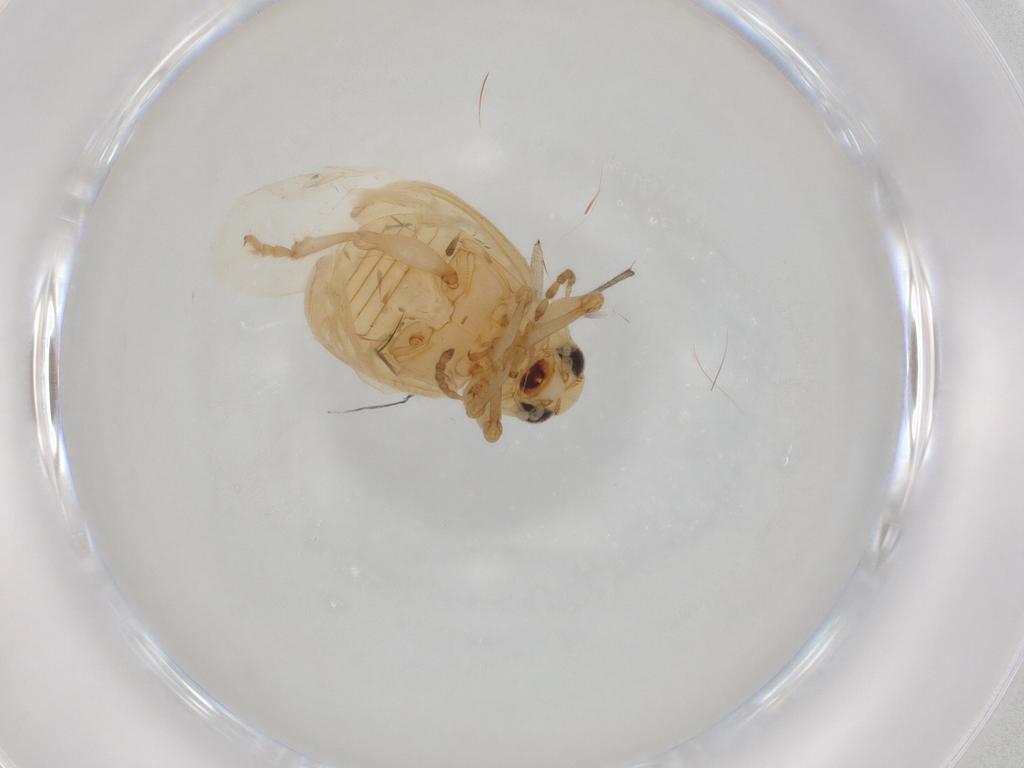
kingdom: Animalia
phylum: Arthropoda
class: Insecta
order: Coleoptera
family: Chrysomelidae
